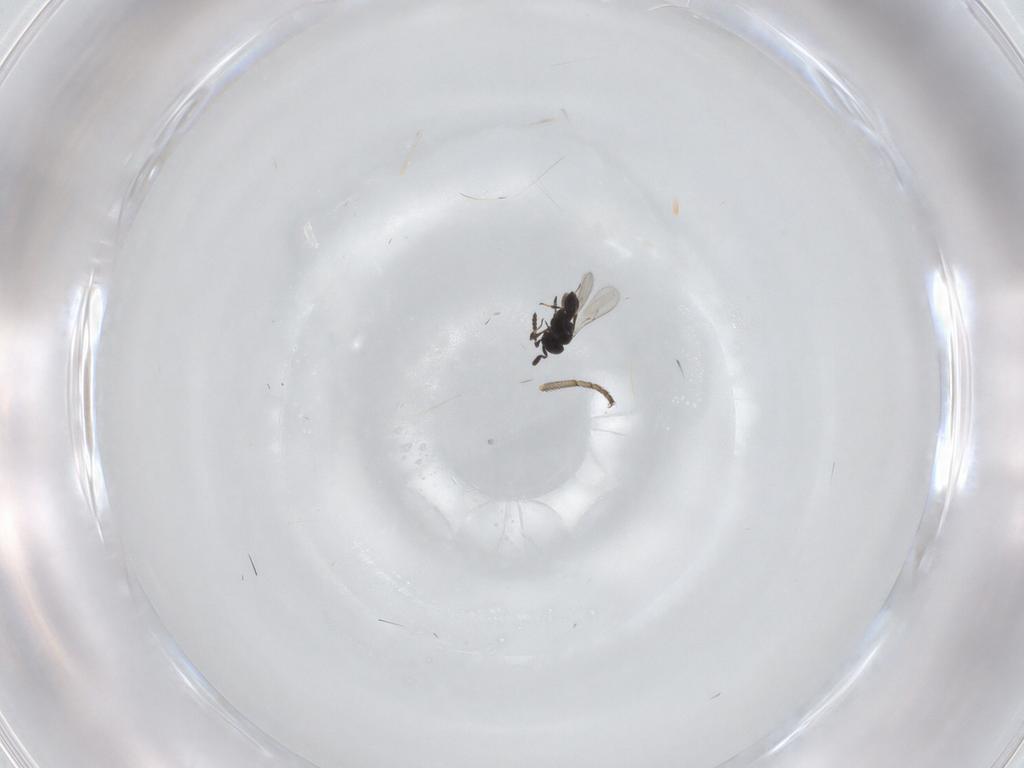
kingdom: Animalia
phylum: Arthropoda
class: Insecta
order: Hymenoptera
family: Scelionidae
